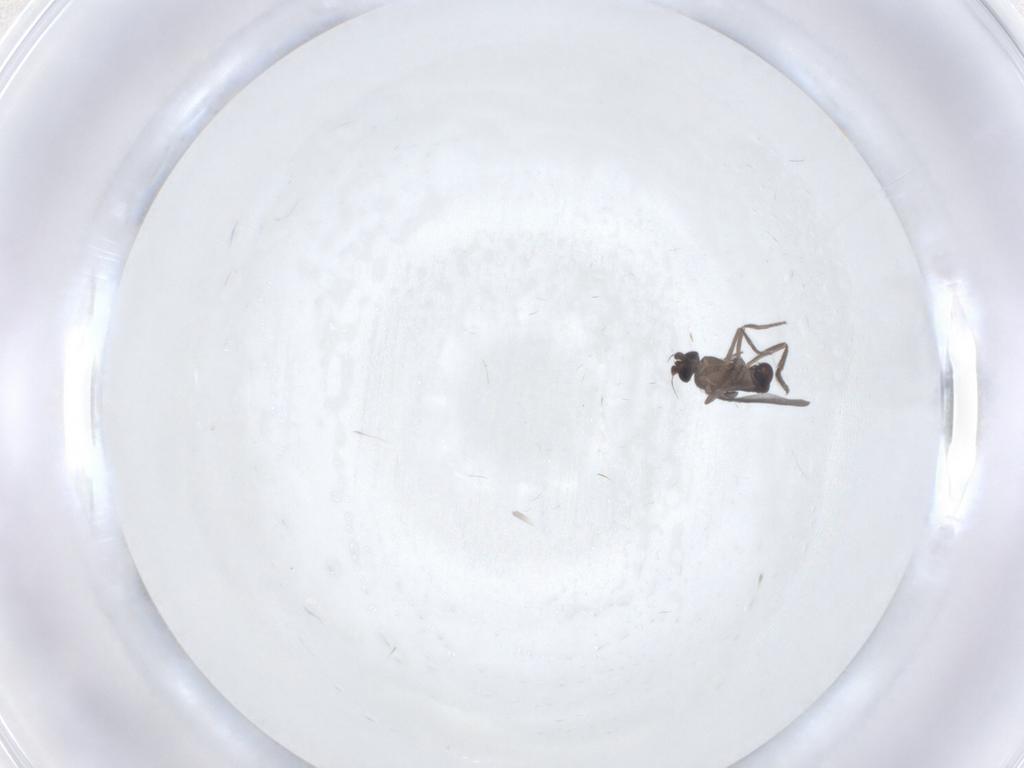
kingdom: Animalia
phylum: Arthropoda
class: Insecta
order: Diptera
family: Phoridae
